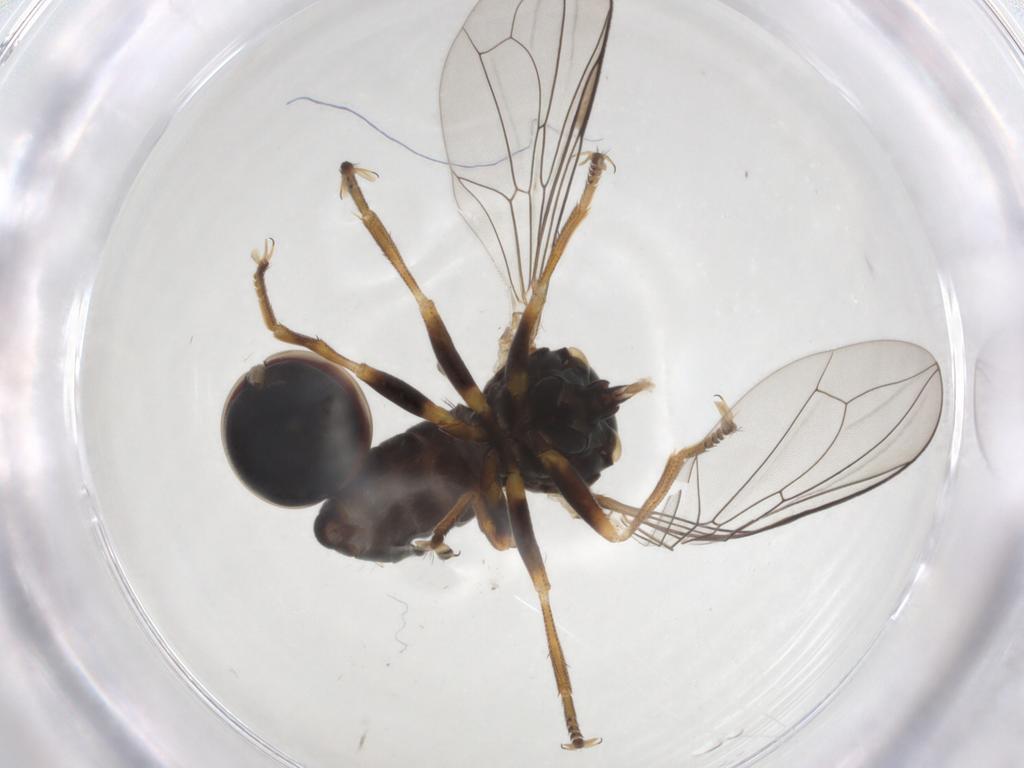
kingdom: Animalia
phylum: Arthropoda
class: Insecta
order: Diptera
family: Pipunculidae
